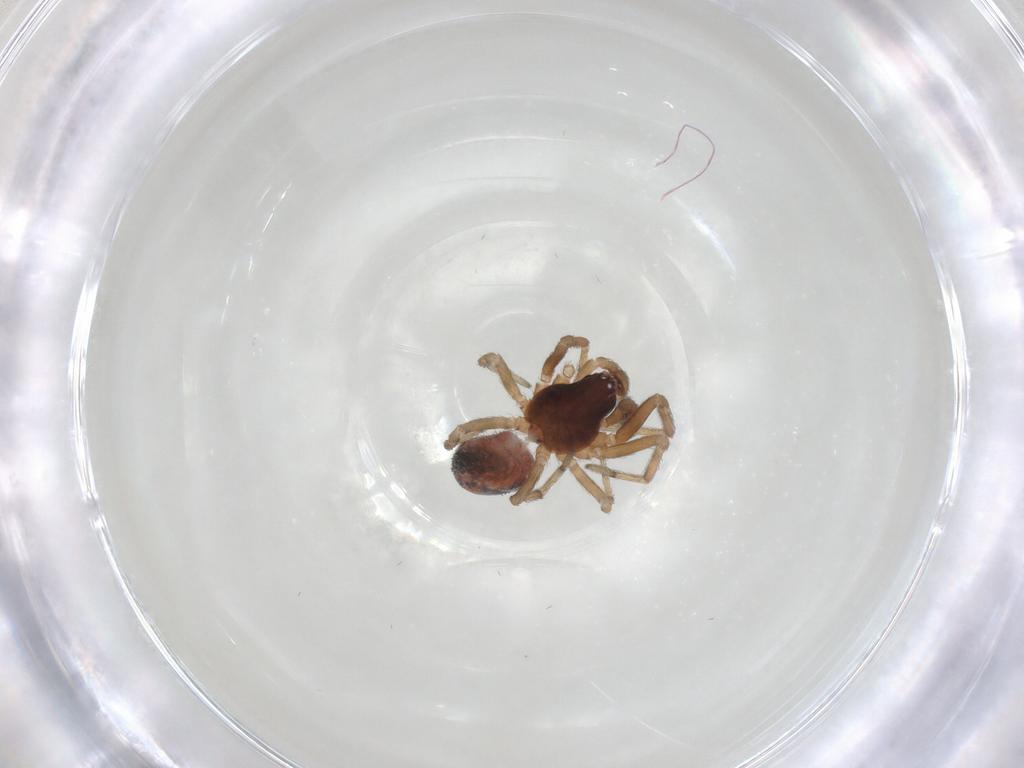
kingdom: Animalia
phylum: Arthropoda
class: Arachnida
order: Araneae
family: Dictynidae
